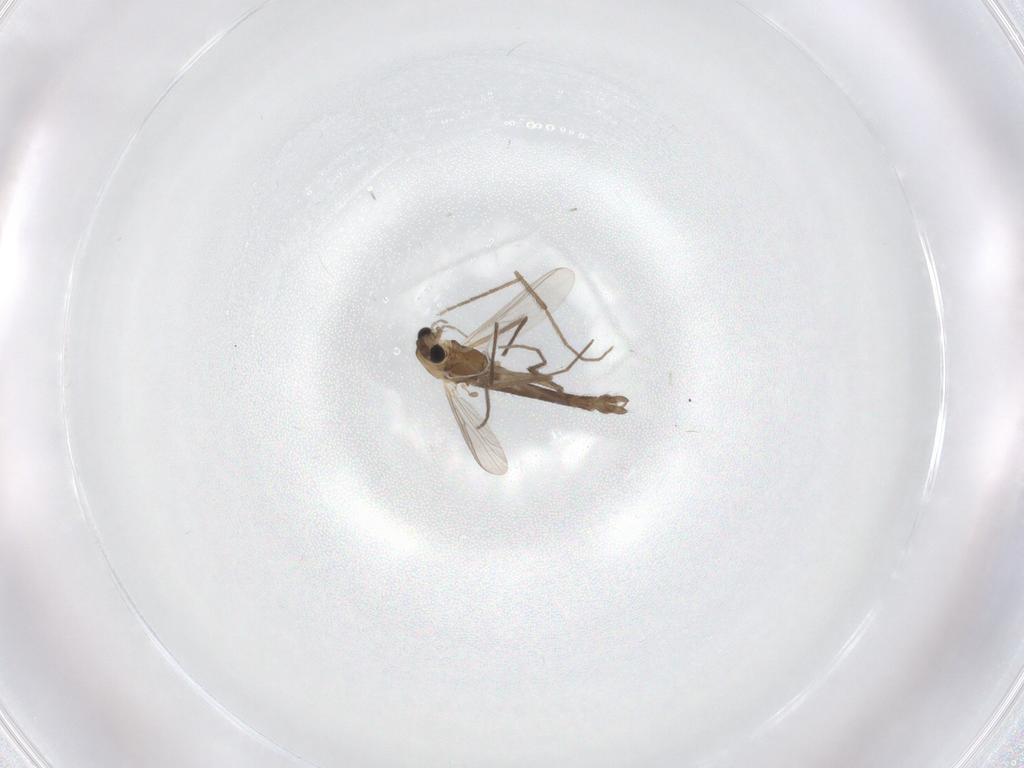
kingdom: Animalia
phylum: Arthropoda
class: Insecta
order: Diptera
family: Chironomidae
